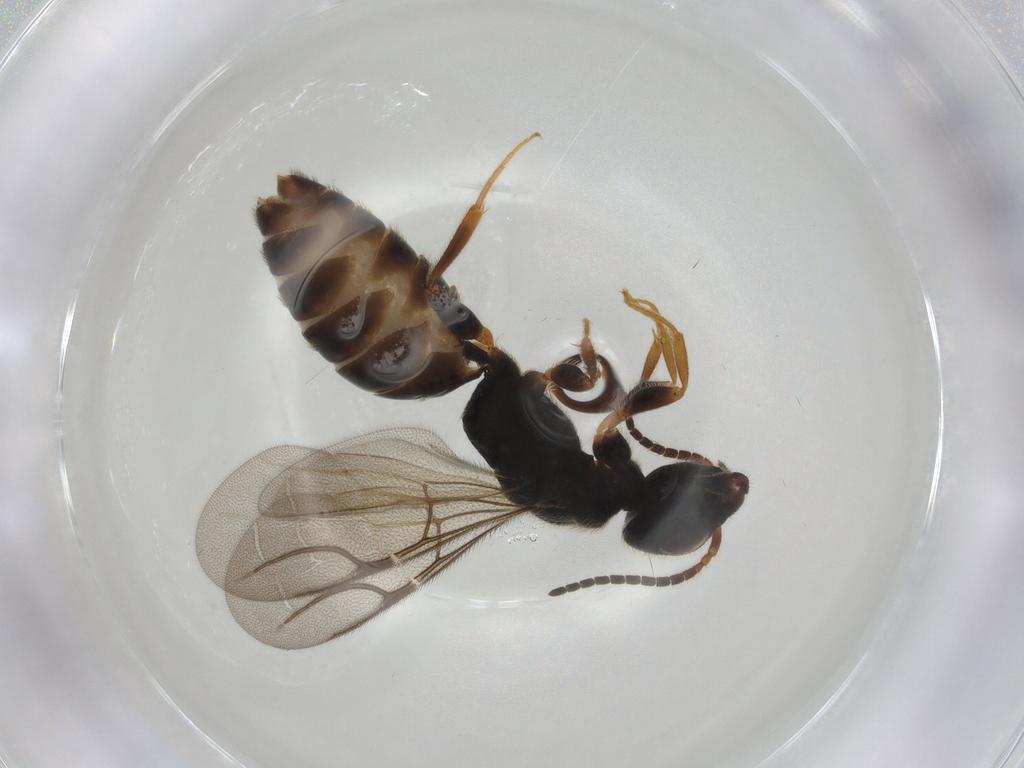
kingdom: Animalia
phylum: Arthropoda
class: Insecta
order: Hymenoptera
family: Bethylidae
